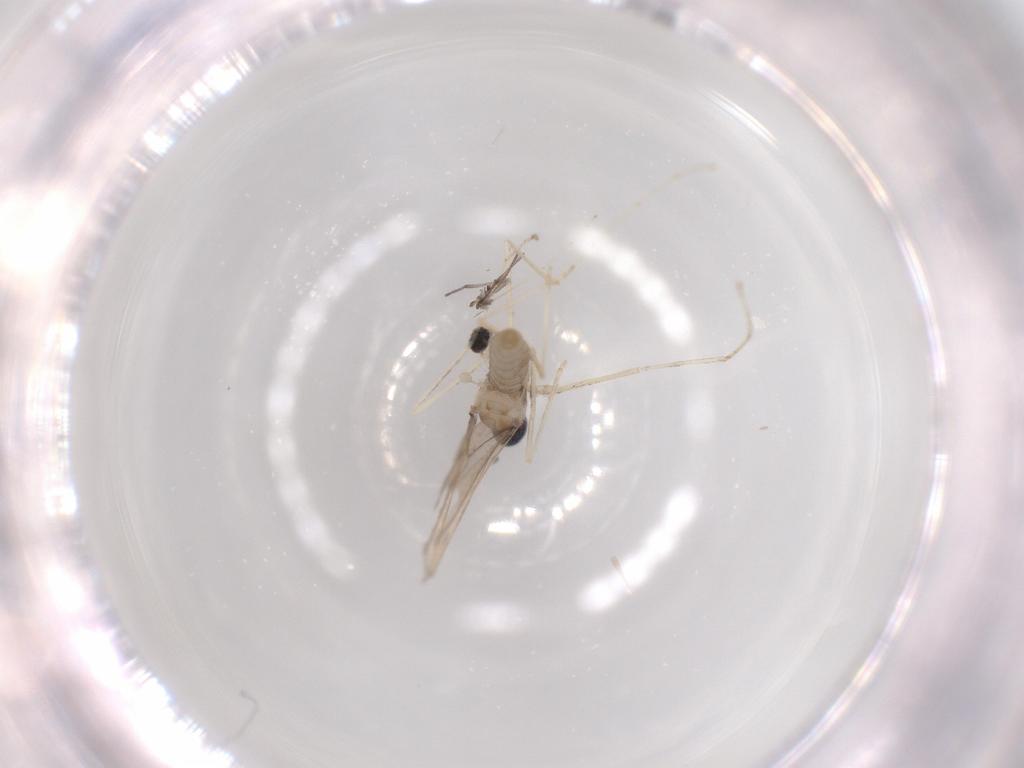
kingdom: Animalia
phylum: Arthropoda
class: Insecta
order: Diptera
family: Cecidomyiidae
